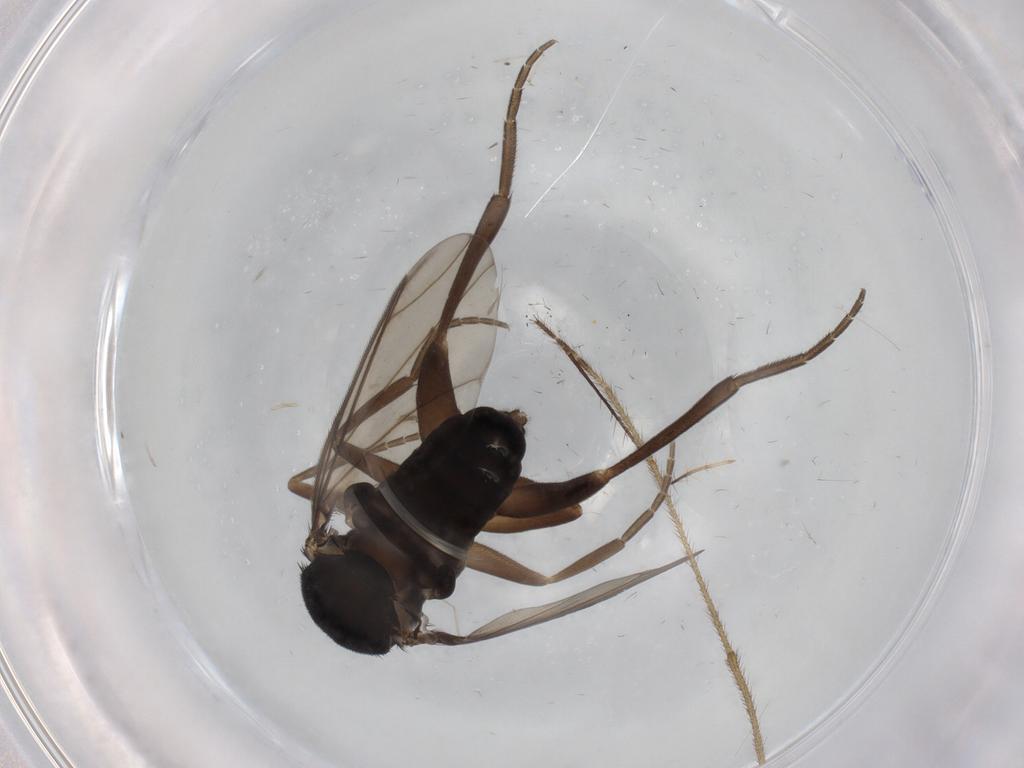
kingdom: Animalia
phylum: Arthropoda
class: Insecta
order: Diptera
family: Phoridae
